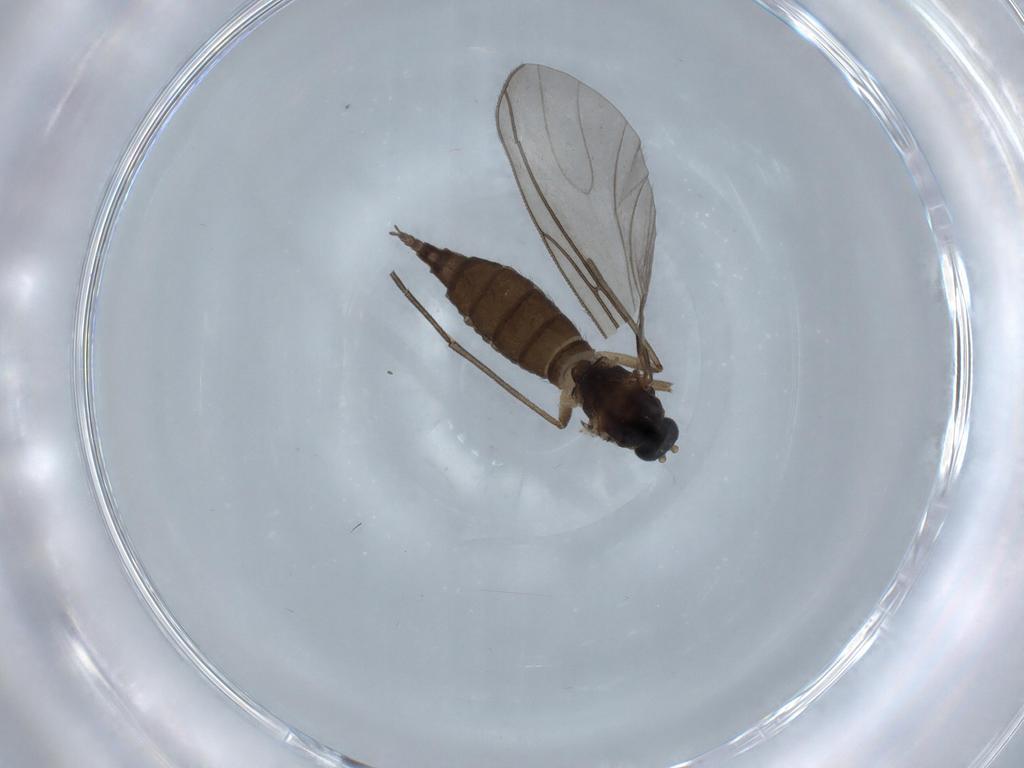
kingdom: Animalia
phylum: Arthropoda
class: Insecta
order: Diptera
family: Sciaridae
